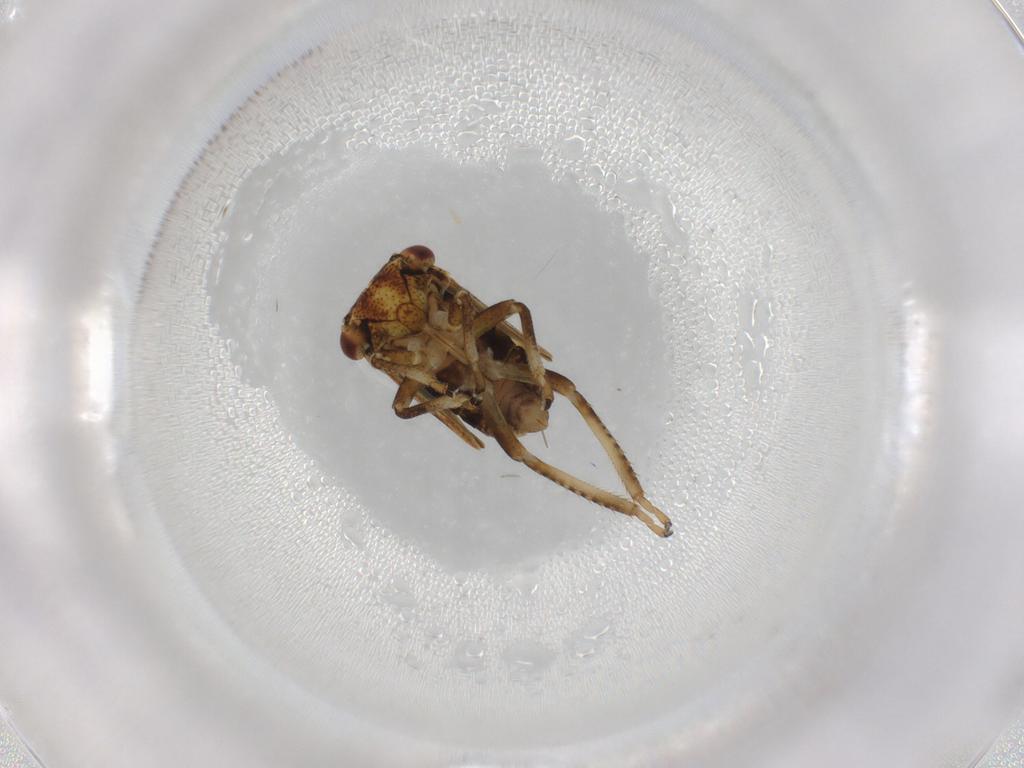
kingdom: Animalia
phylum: Arthropoda
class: Insecta
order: Hemiptera
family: Cicadellidae
